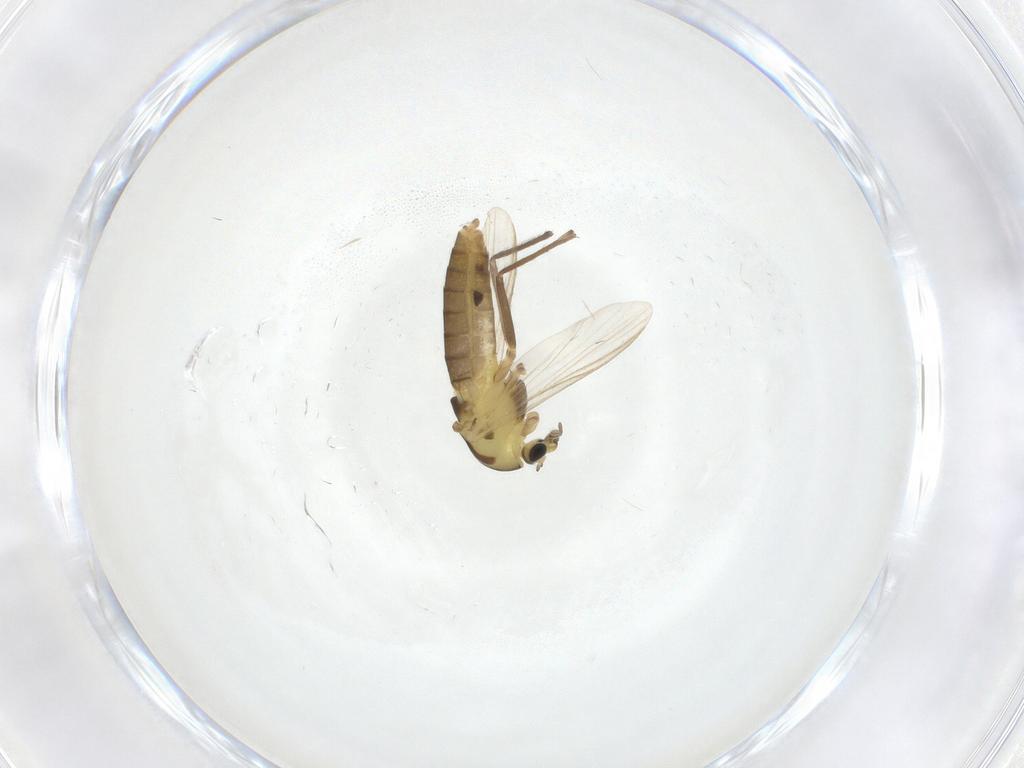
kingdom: Animalia
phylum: Arthropoda
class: Insecta
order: Diptera
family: Chironomidae
